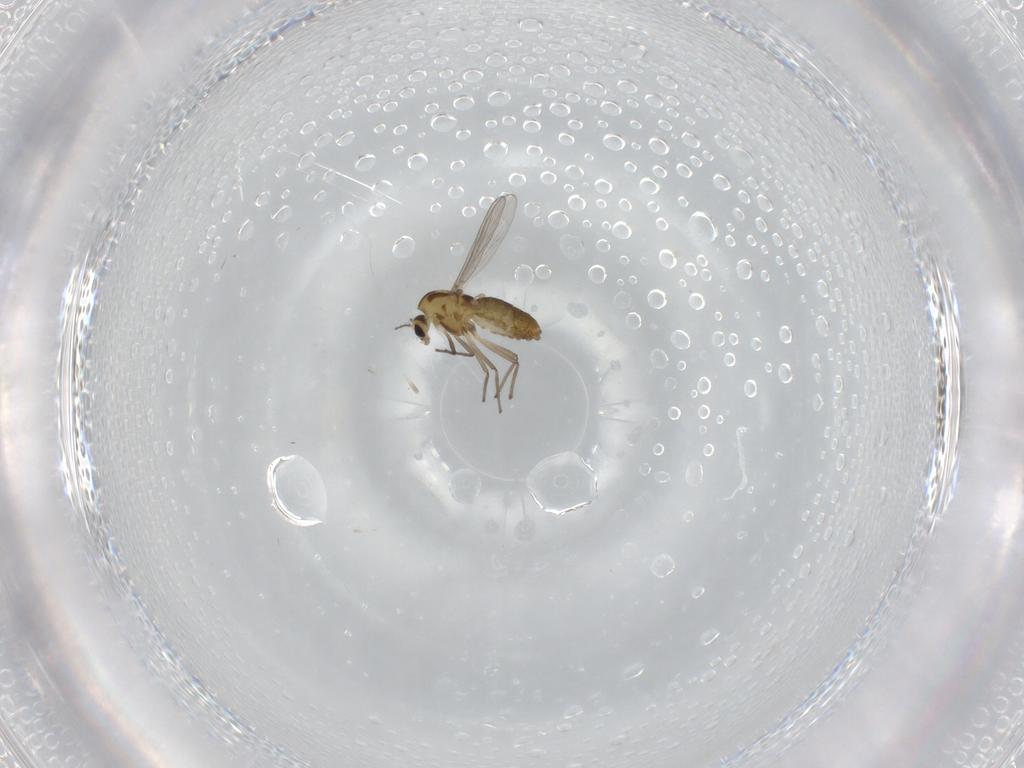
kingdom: Animalia
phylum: Arthropoda
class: Insecta
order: Diptera
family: Chironomidae
